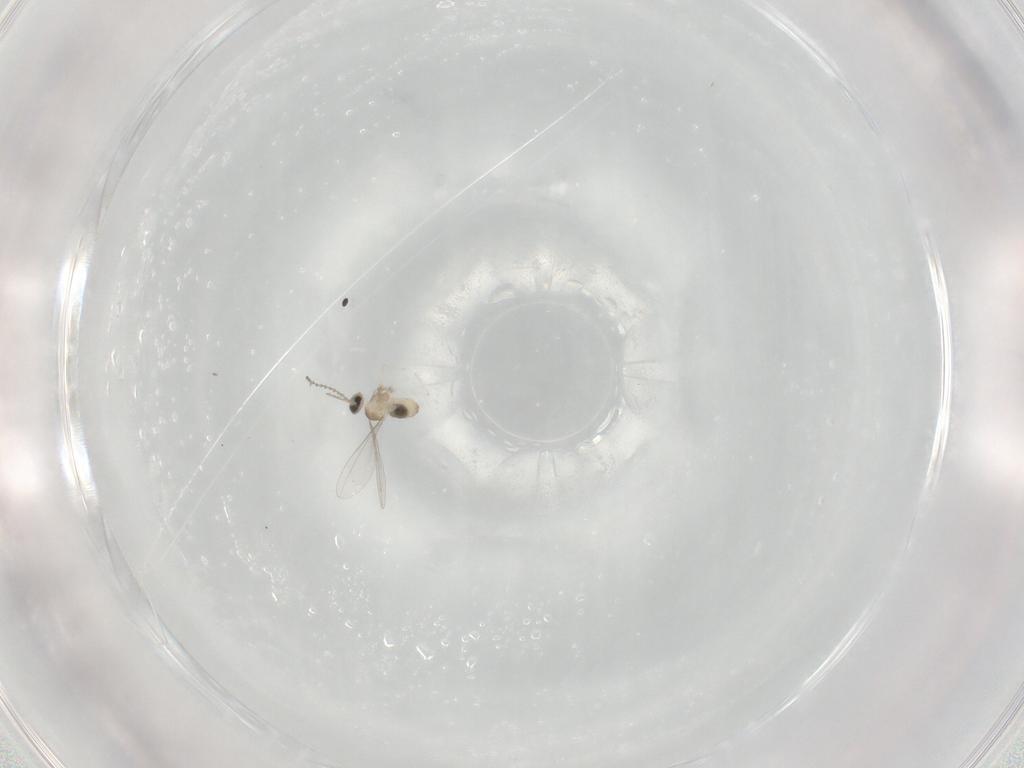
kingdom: Animalia
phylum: Arthropoda
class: Insecta
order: Diptera
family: Cecidomyiidae
